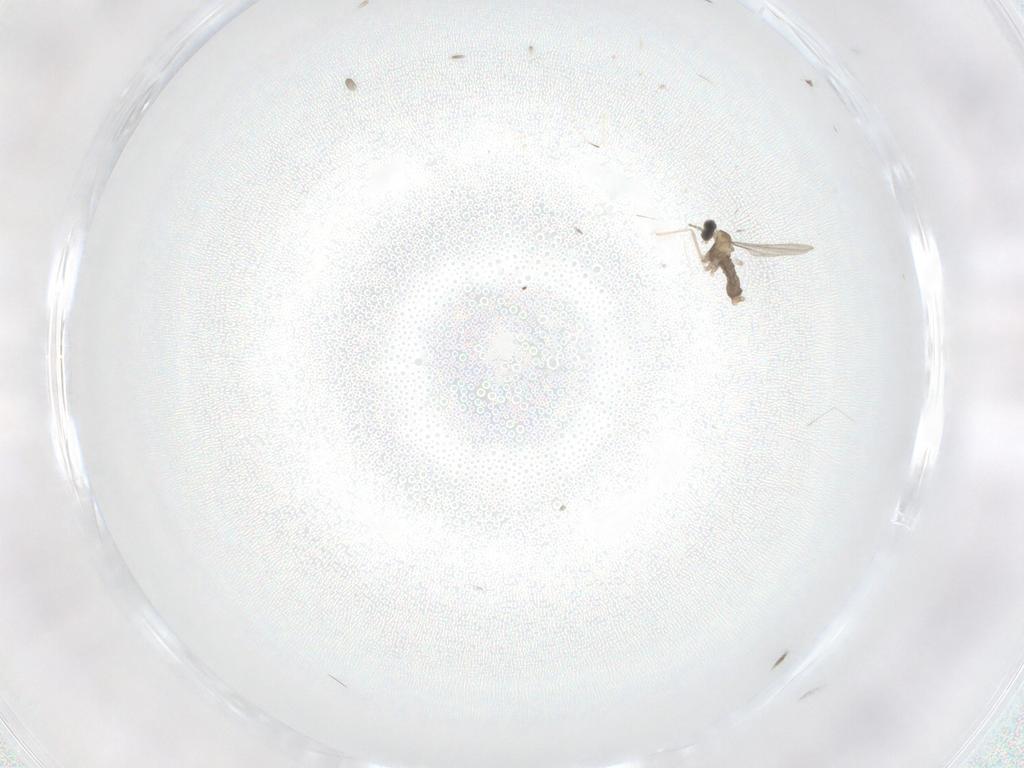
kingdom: Animalia
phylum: Arthropoda
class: Insecta
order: Diptera
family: Cecidomyiidae
